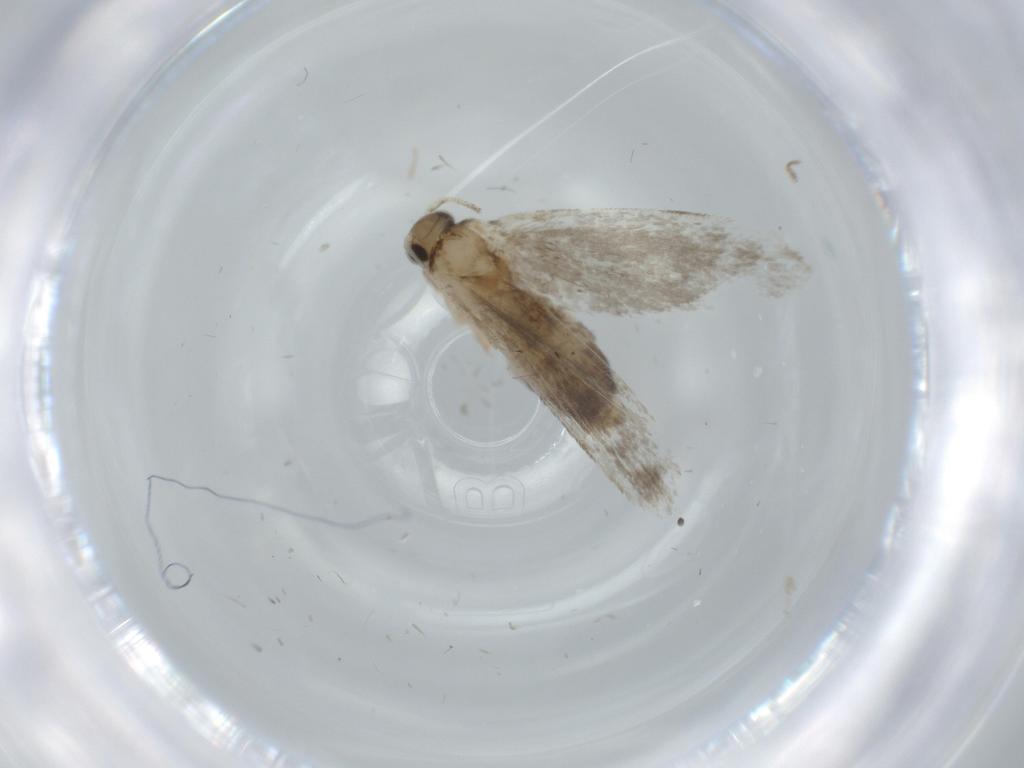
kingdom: Animalia
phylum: Arthropoda
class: Insecta
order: Lepidoptera
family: Tineidae
